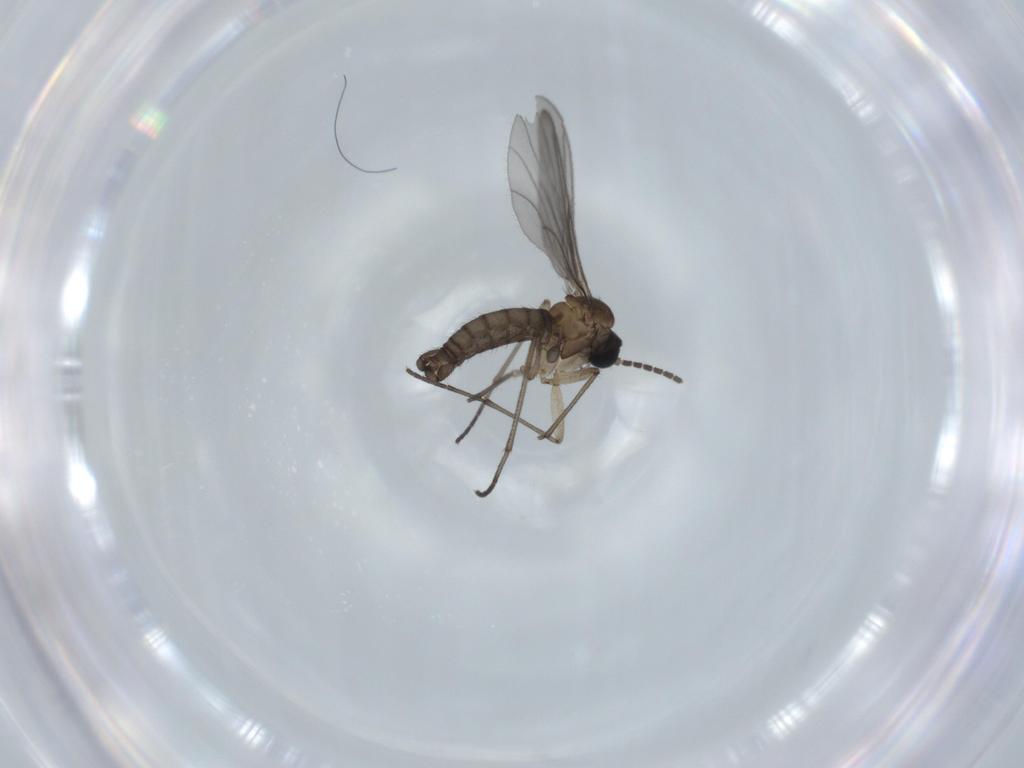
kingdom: Animalia
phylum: Arthropoda
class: Insecta
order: Diptera
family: Sciaridae
